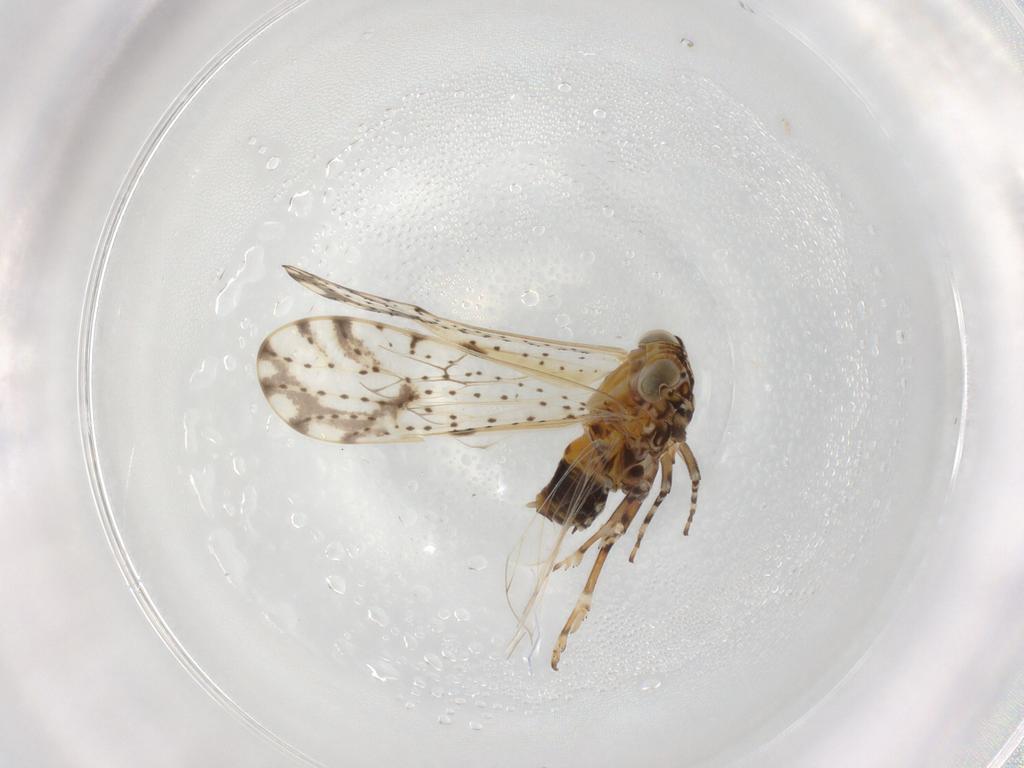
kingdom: Animalia
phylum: Arthropoda
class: Insecta
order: Hemiptera
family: Delphacidae
